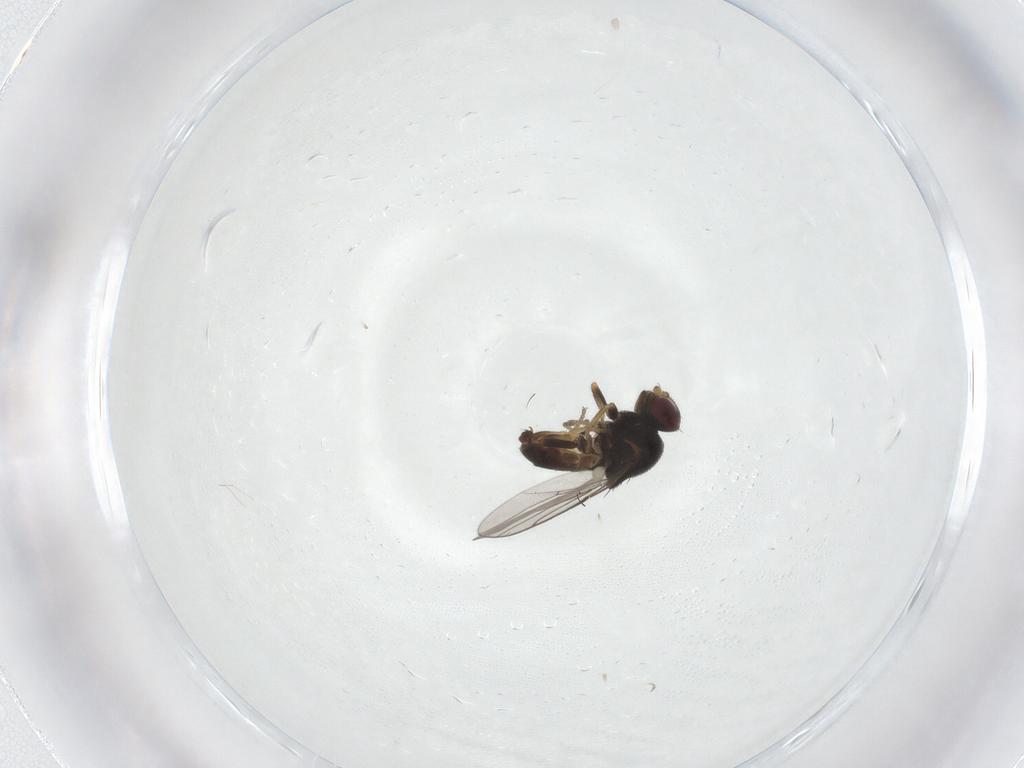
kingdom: Animalia
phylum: Arthropoda
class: Insecta
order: Diptera
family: Chloropidae
